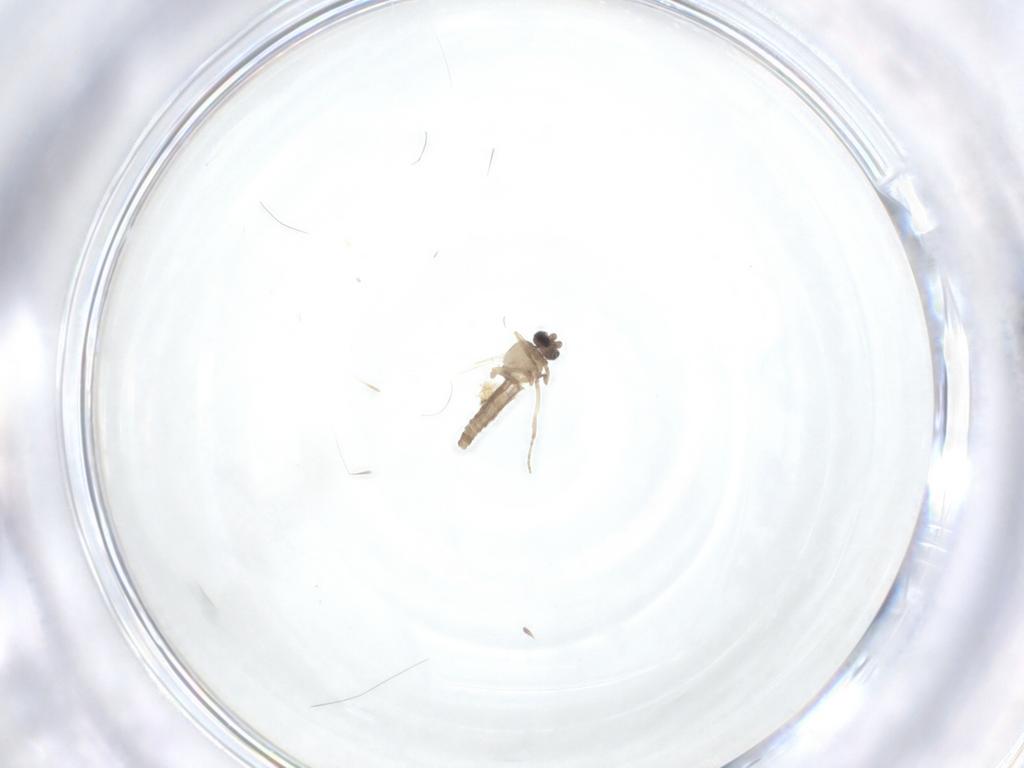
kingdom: Animalia
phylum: Arthropoda
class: Insecta
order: Diptera
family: Ceratopogonidae
